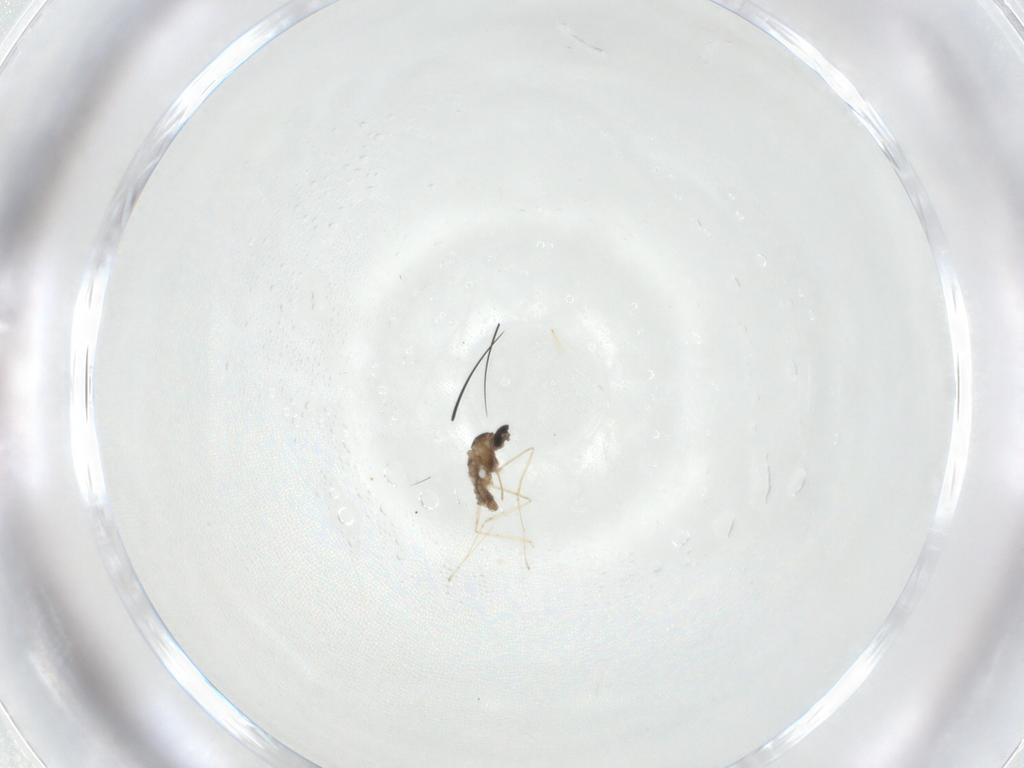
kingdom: Animalia
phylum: Arthropoda
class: Insecta
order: Diptera
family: Cecidomyiidae
